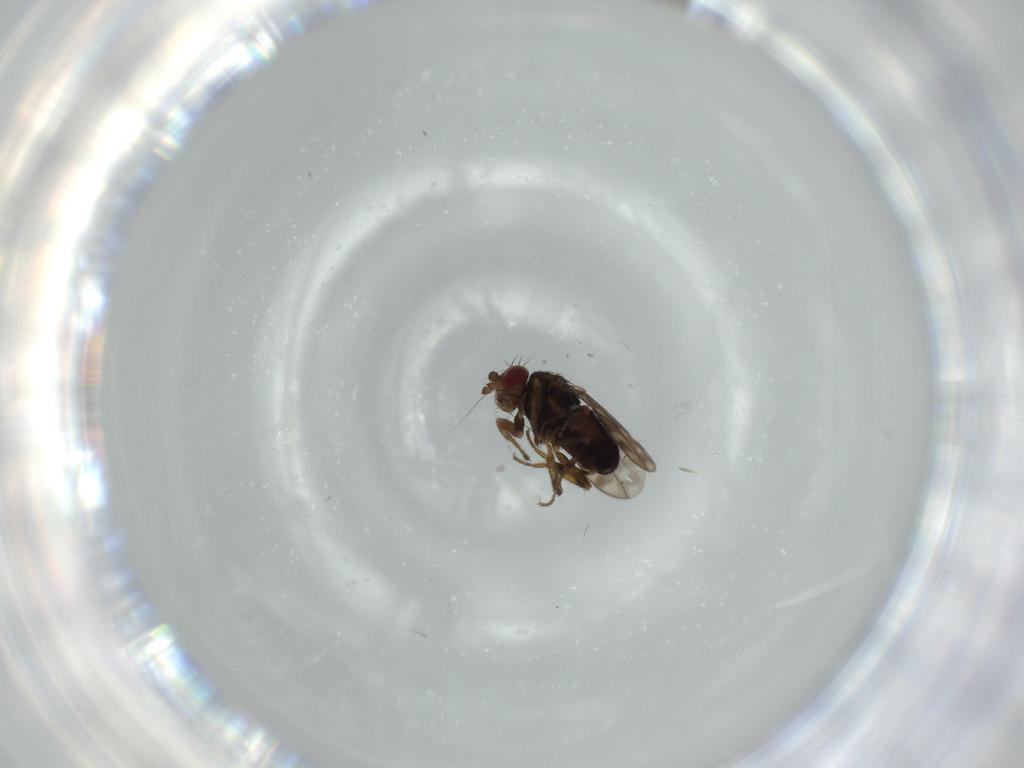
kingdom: Animalia
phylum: Arthropoda
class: Insecta
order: Diptera
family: Sphaeroceridae
